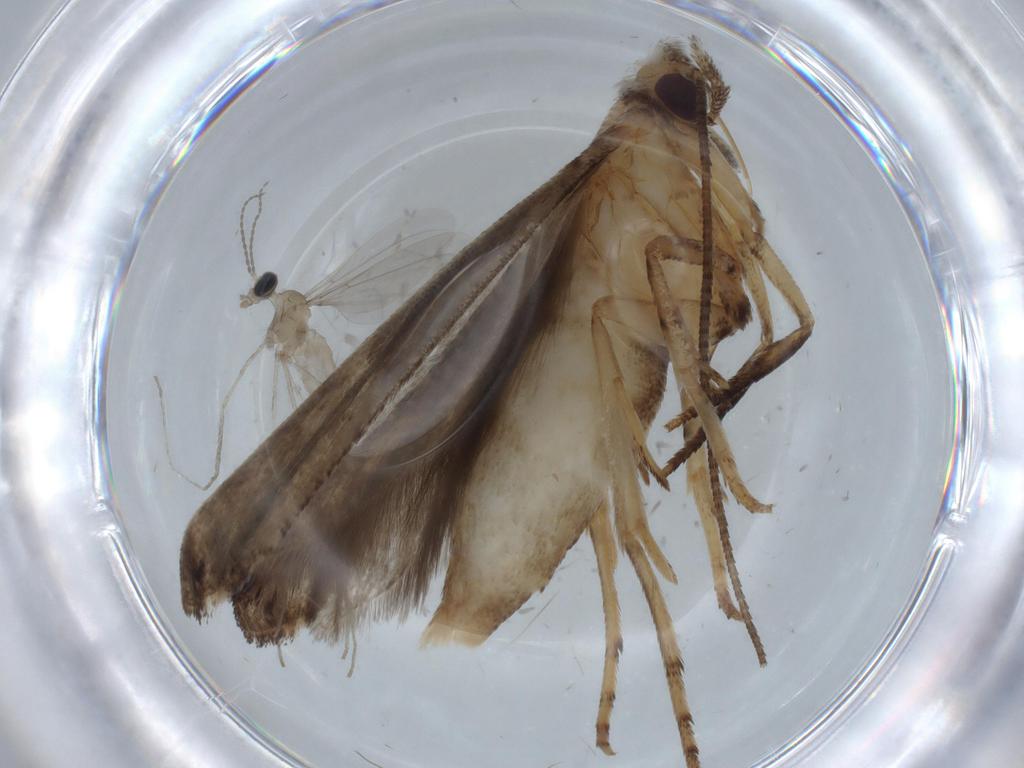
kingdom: Animalia
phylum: Arthropoda
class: Insecta
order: Lepidoptera
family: Yponomeutidae
